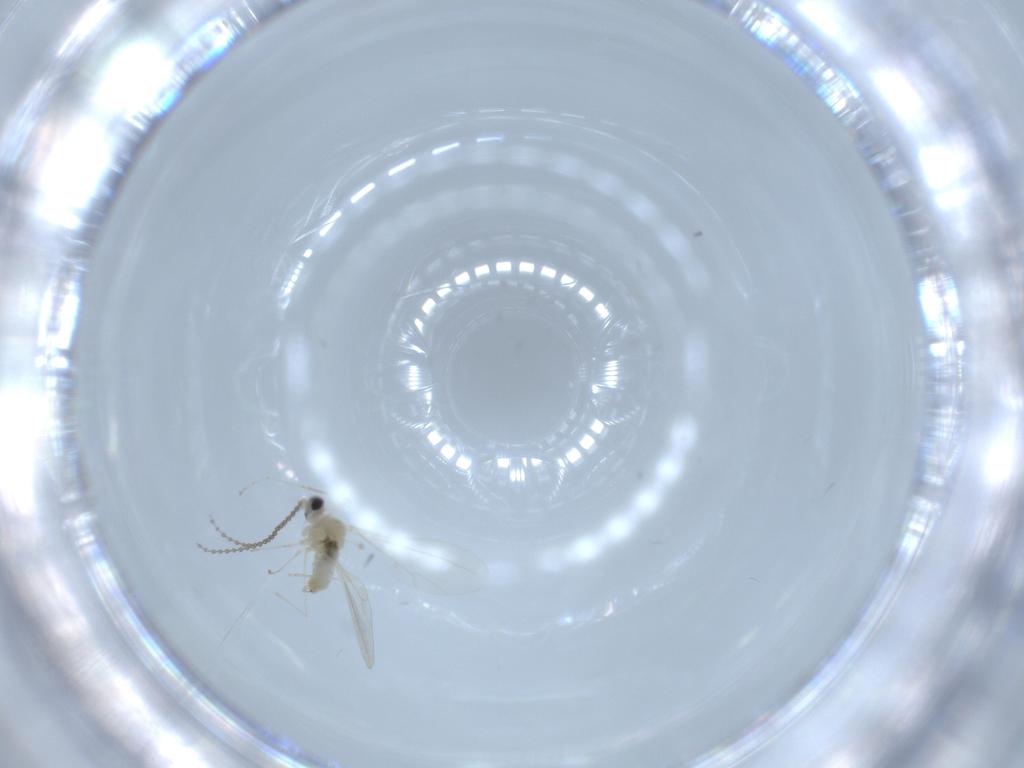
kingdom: Animalia
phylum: Arthropoda
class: Insecta
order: Diptera
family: Cecidomyiidae
